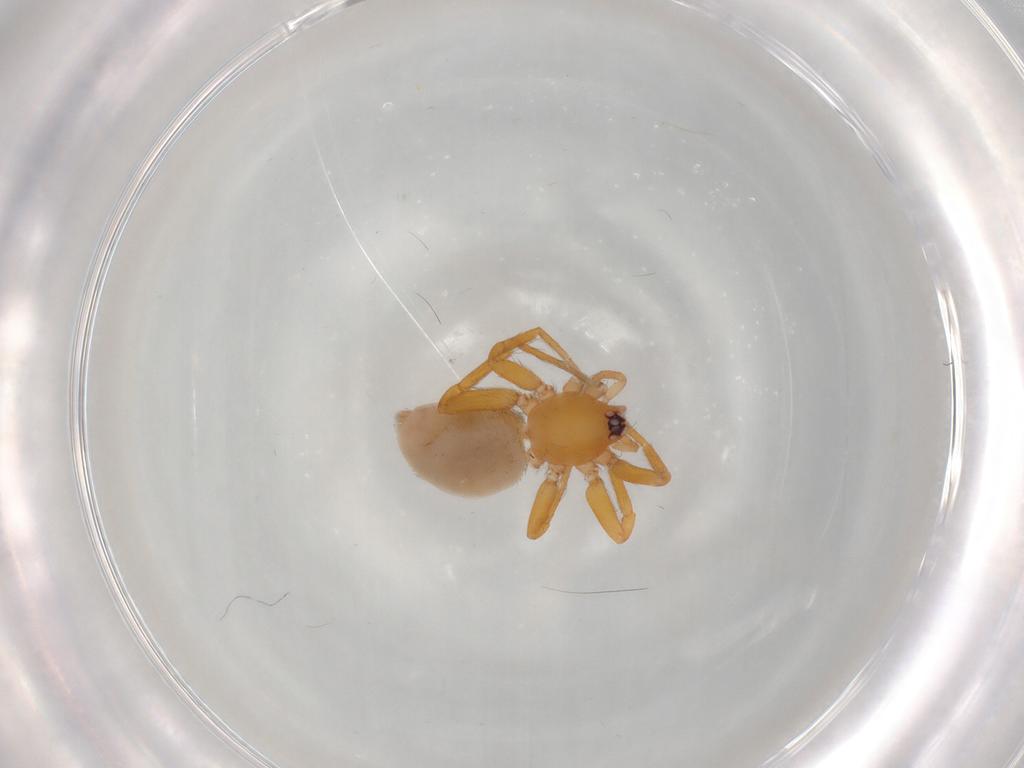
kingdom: Animalia
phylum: Arthropoda
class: Arachnida
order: Araneae
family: Oonopidae
